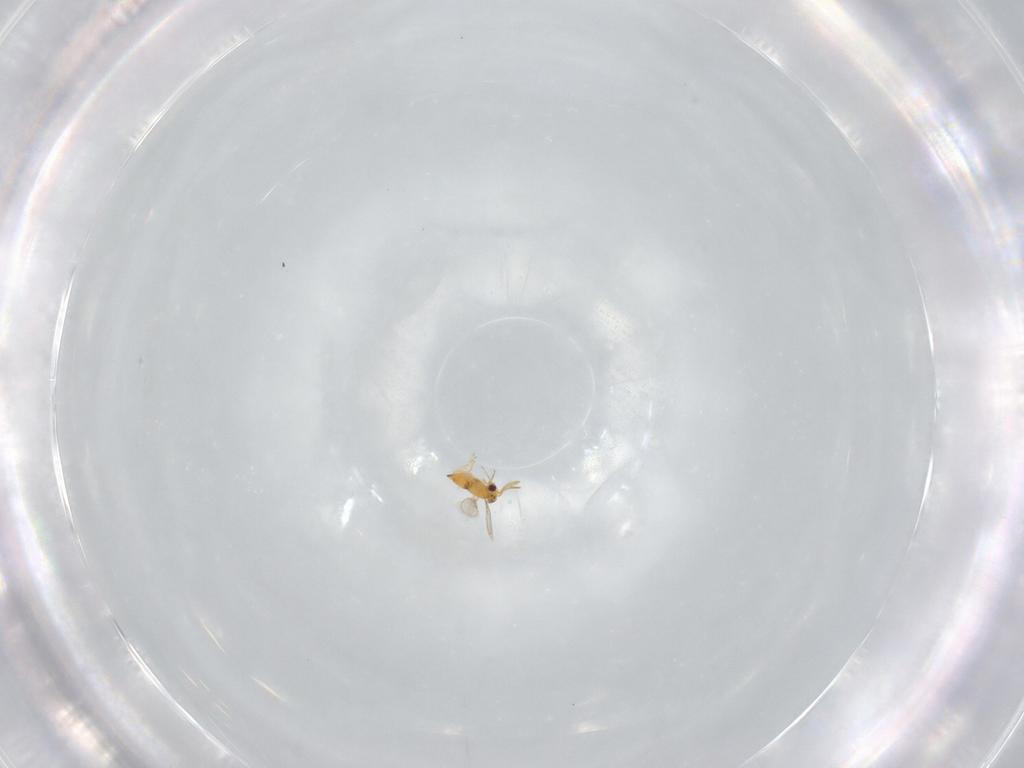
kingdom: Animalia
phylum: Arthropoda
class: Insecta
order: Hymenoptera
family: Aphelinidae
